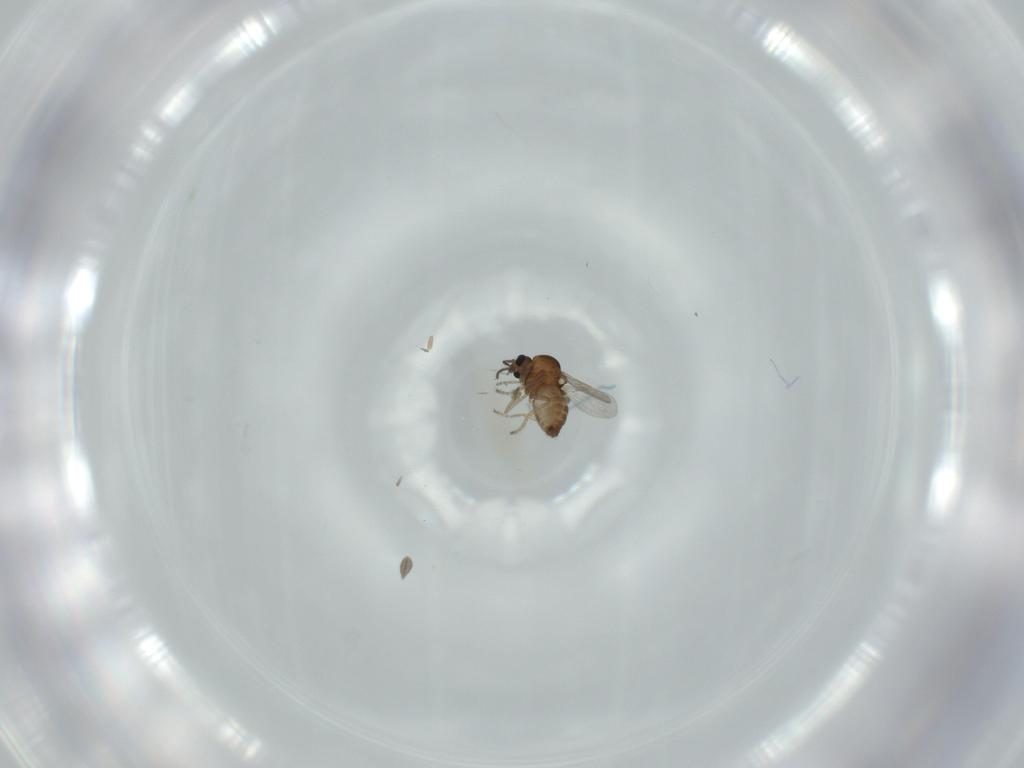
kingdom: Animalia
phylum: Arthropoda
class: Insecta
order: Diptera
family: Ceratopogonidae
